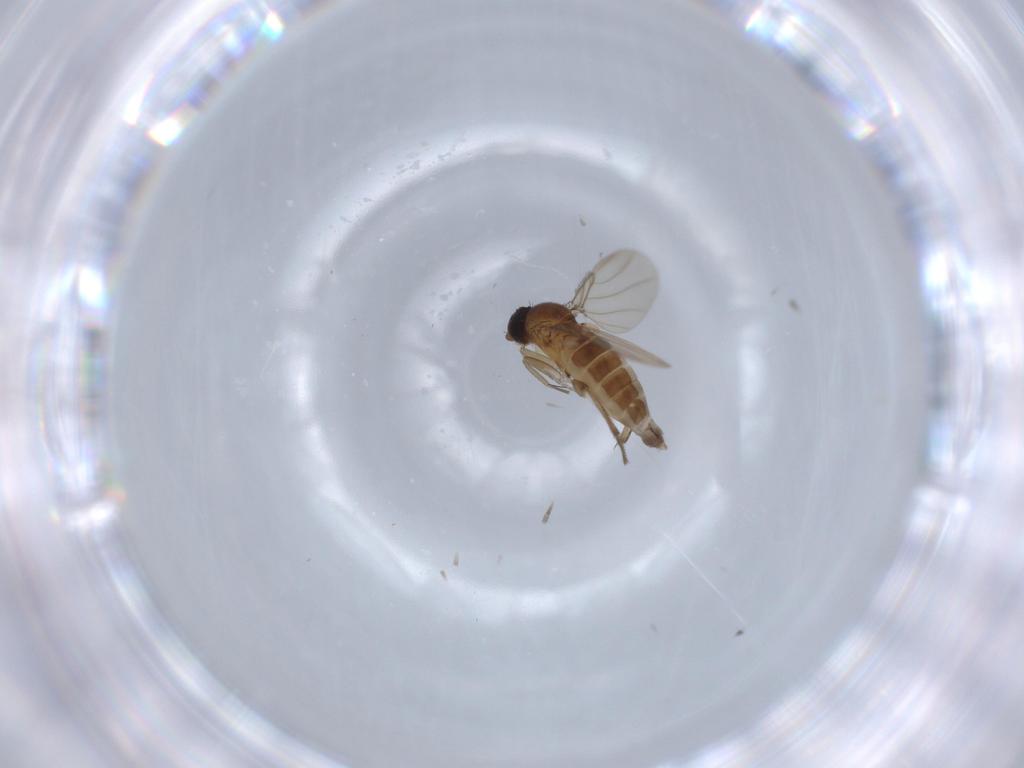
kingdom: Animalia
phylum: Arthropoda
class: Insecta
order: Diptera
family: Phoridae
